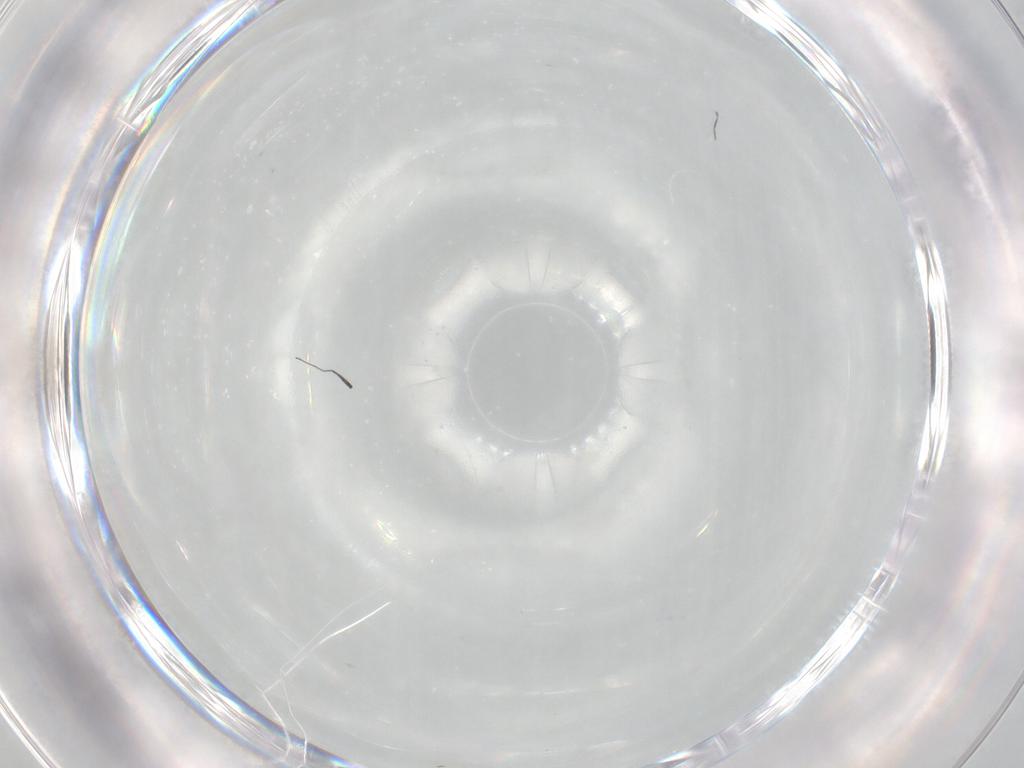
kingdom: Animalia
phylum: Arthropoda
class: Insecta
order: Diptera
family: Cecidomyiidae
